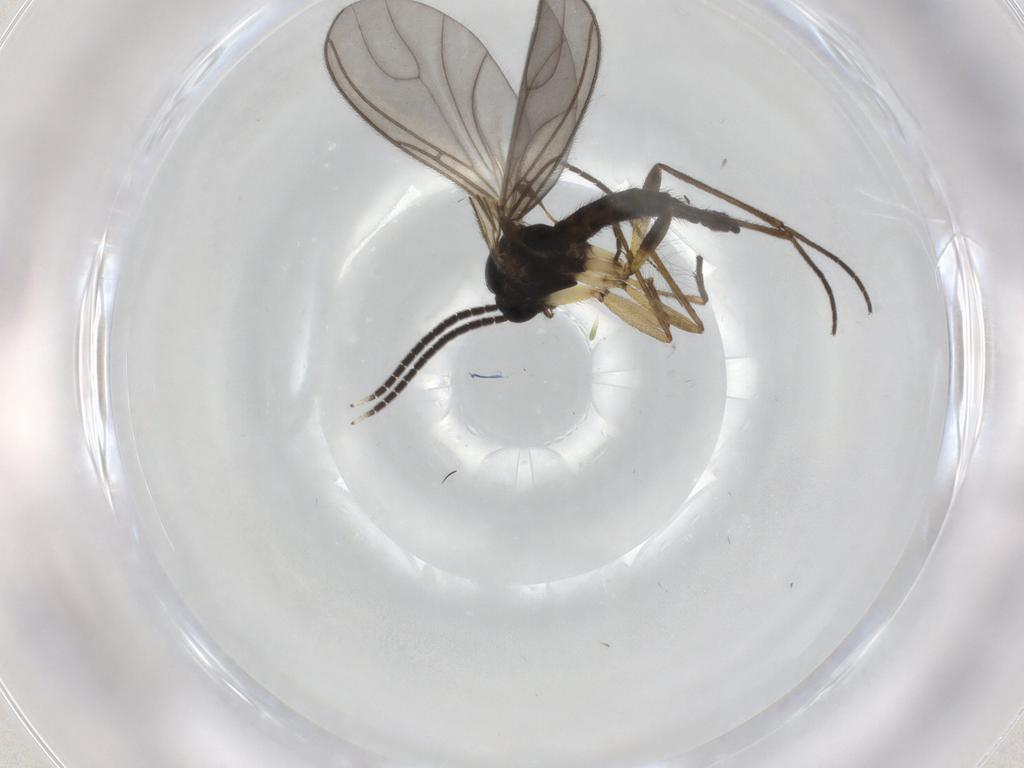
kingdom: Animalia
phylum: Arthropoda
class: Insecta
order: Diptera
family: Sciaridae
